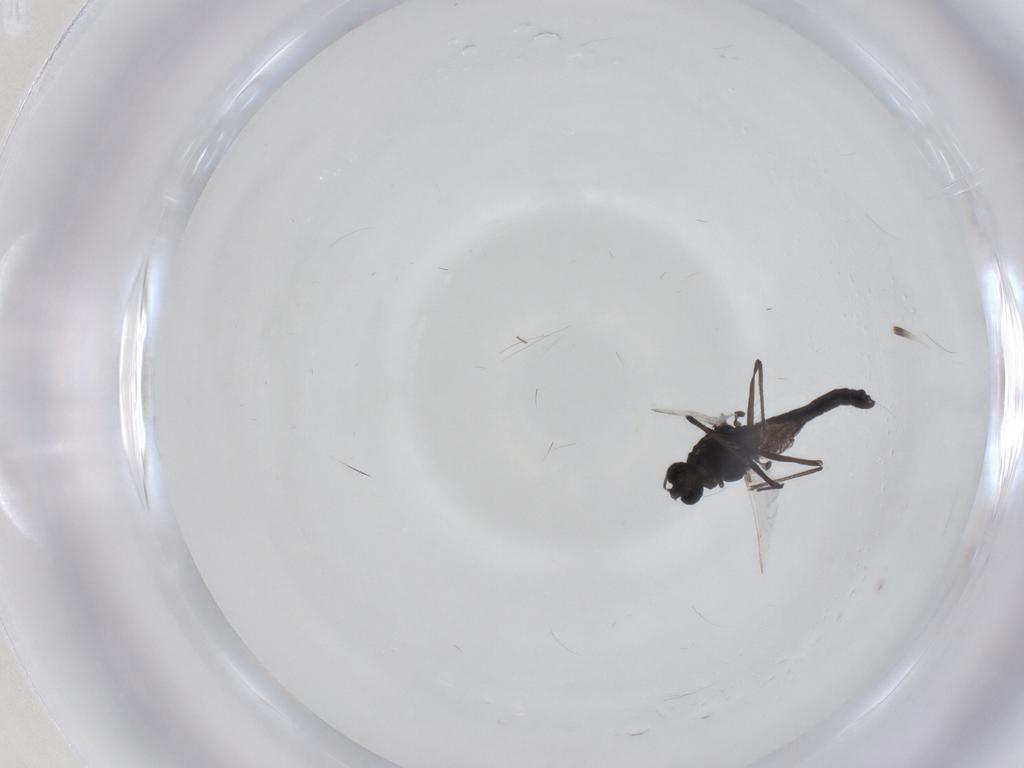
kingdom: Animalia
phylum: Arthropoda
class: Insecta
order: Diptera
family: Chironomidae
